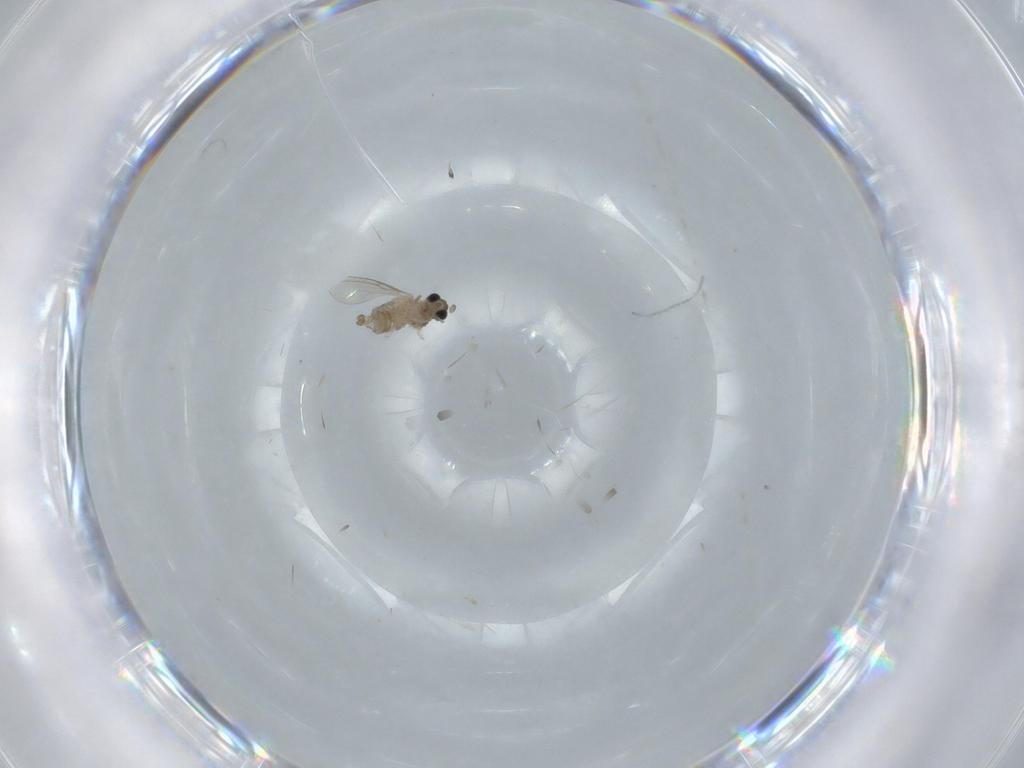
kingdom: Animalia
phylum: Arthropoda
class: Insecta
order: Diptera
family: Cecidomyiidae
